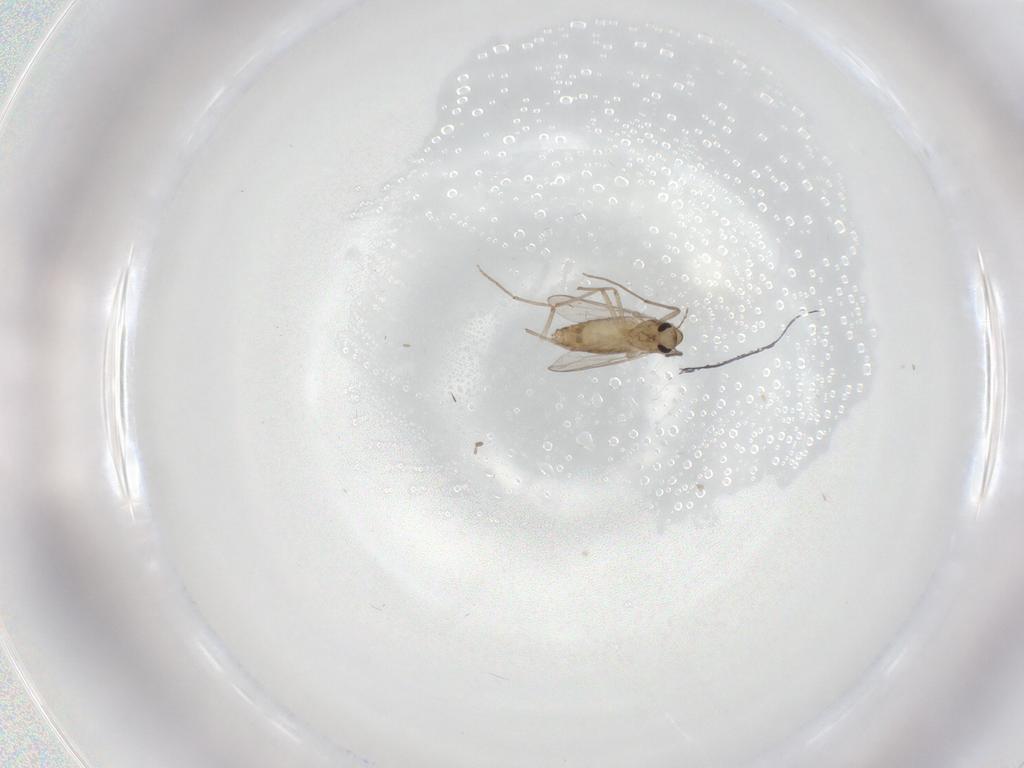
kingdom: Animalia
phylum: Arthropoda
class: Insecta
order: Diptera
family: Chironomidae
